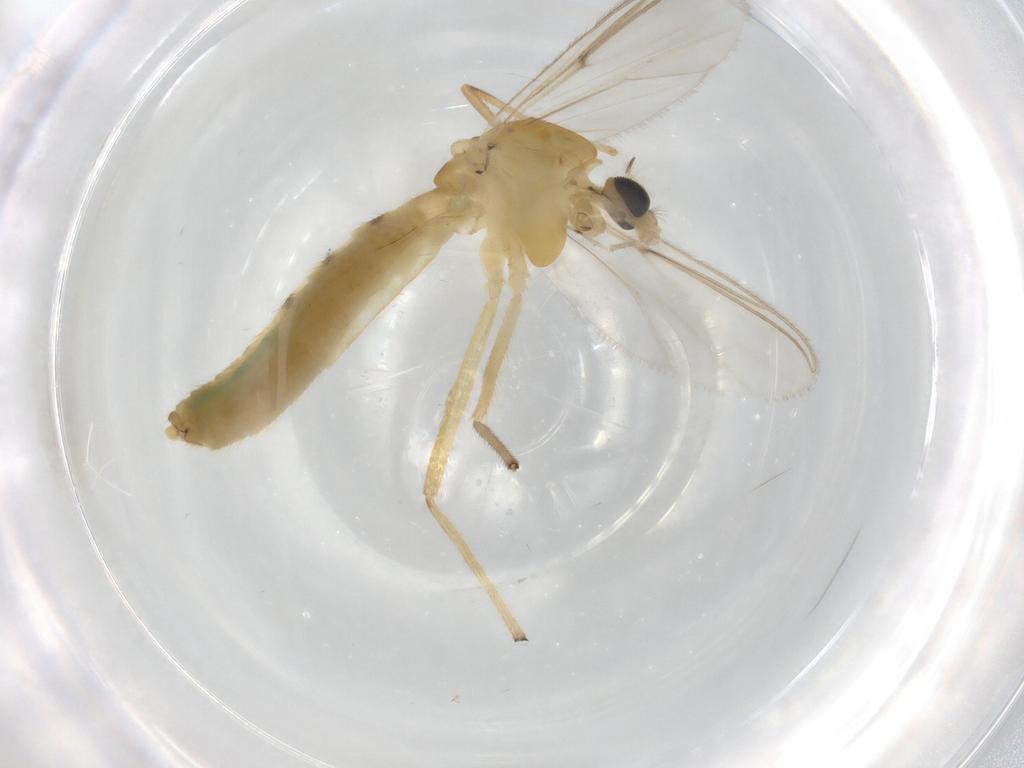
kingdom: Animalia
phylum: Arthropoda
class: Insecta
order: Diptera
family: Chironomidae
